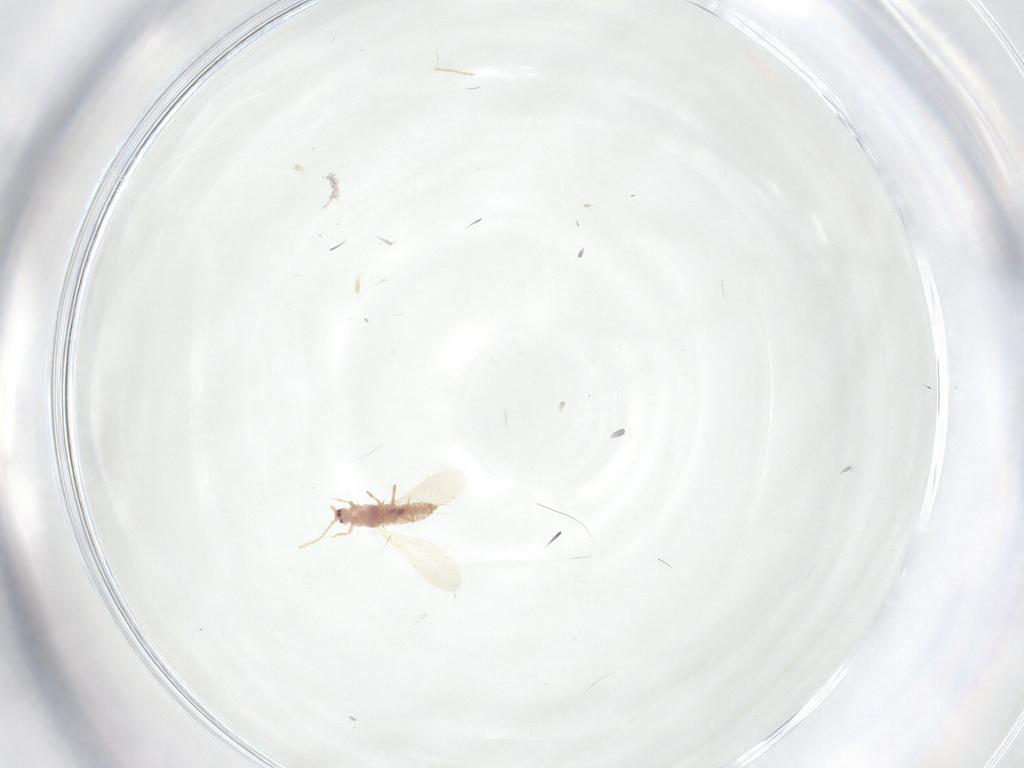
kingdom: Animalia
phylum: Arthropoda
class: Insecta
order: Hemiptera
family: Pseudococcidae
